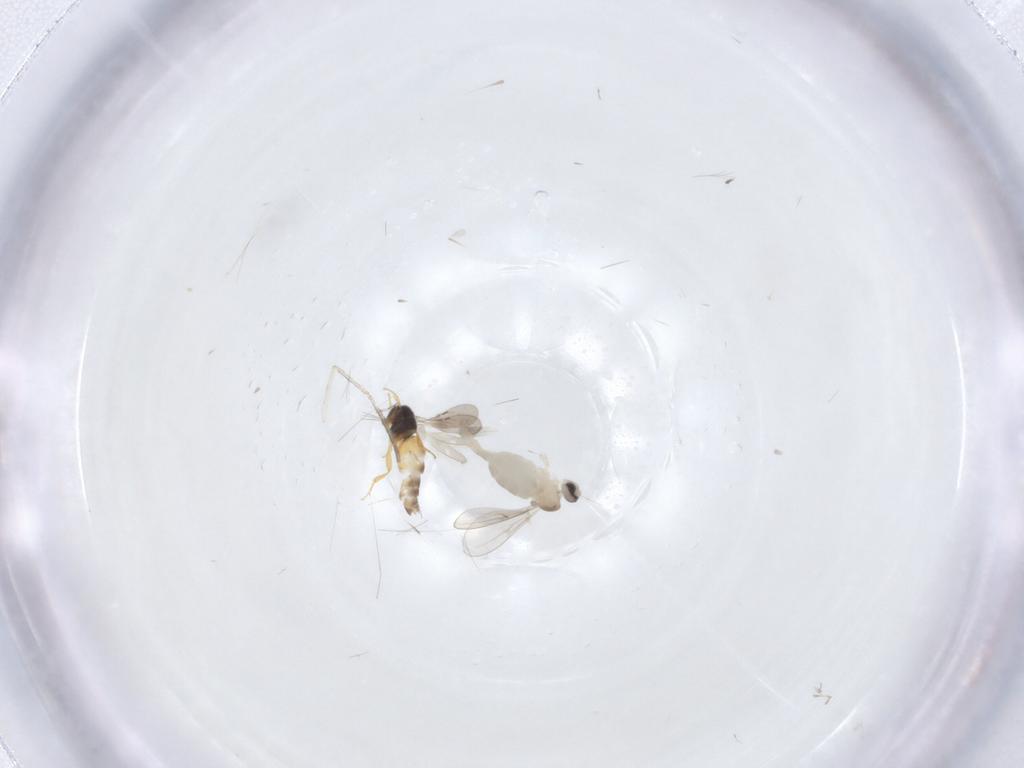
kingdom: Animalia
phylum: Arthropoda
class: Insecta
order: Diptera
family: Cecidomyiidae
